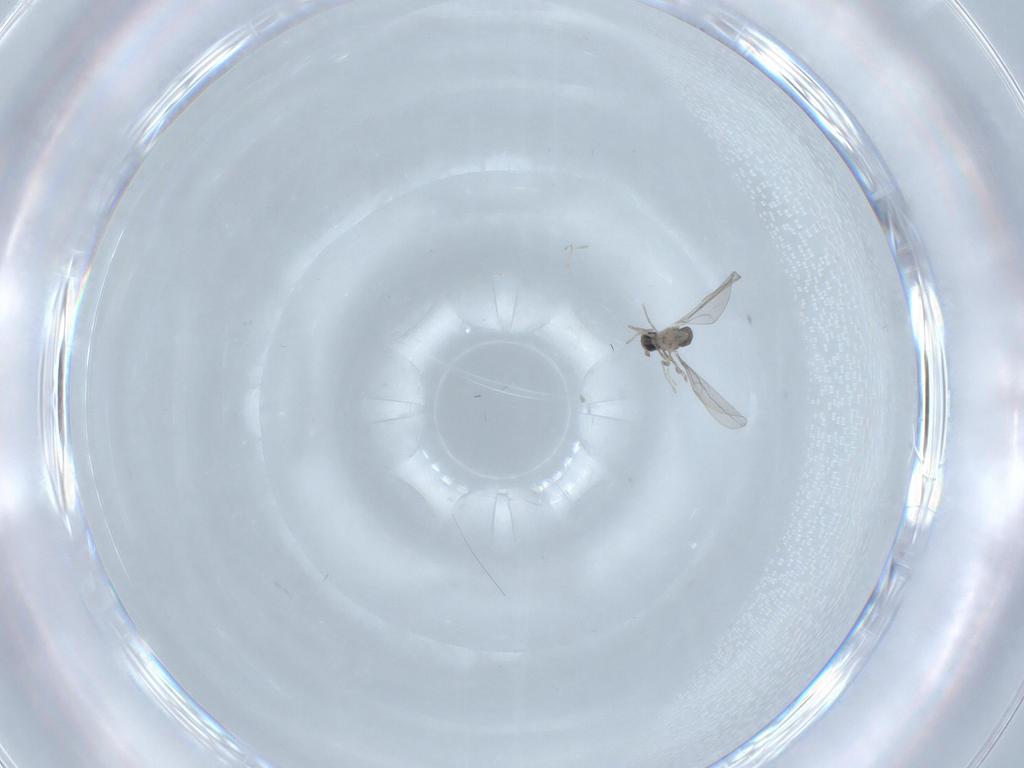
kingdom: Animalia
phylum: Arthropoda
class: Insecta
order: Diptera
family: Cecidomyiidae
